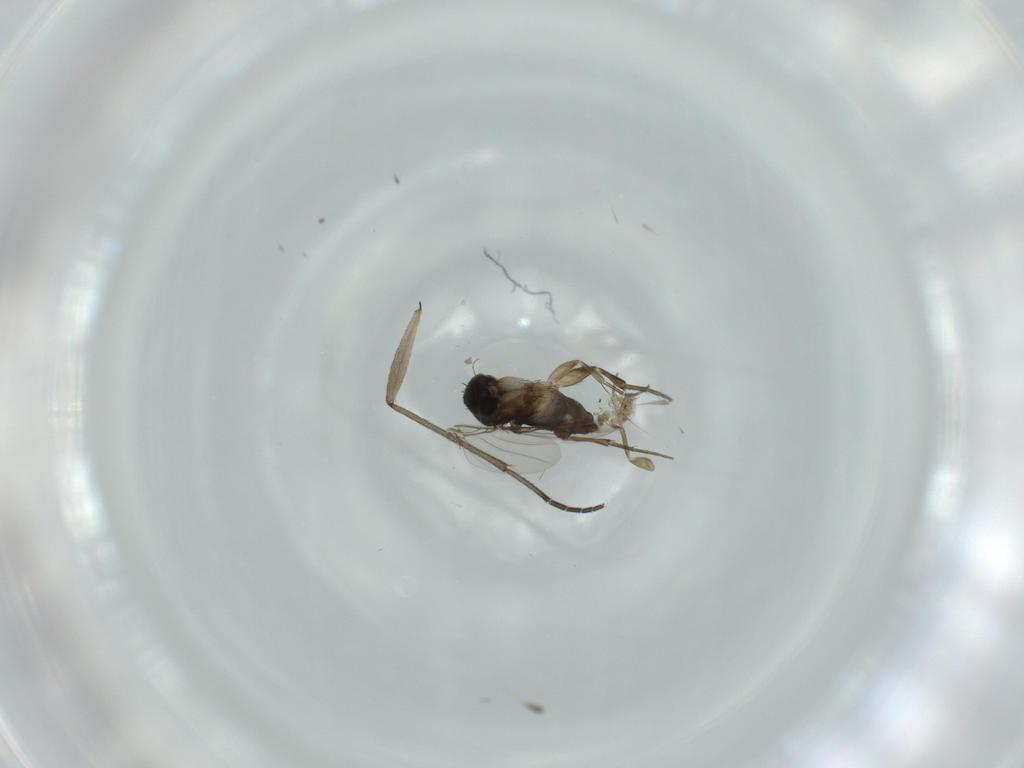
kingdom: Animalia
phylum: Arthropoda
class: Insecta
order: Diptera
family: Phoridae
